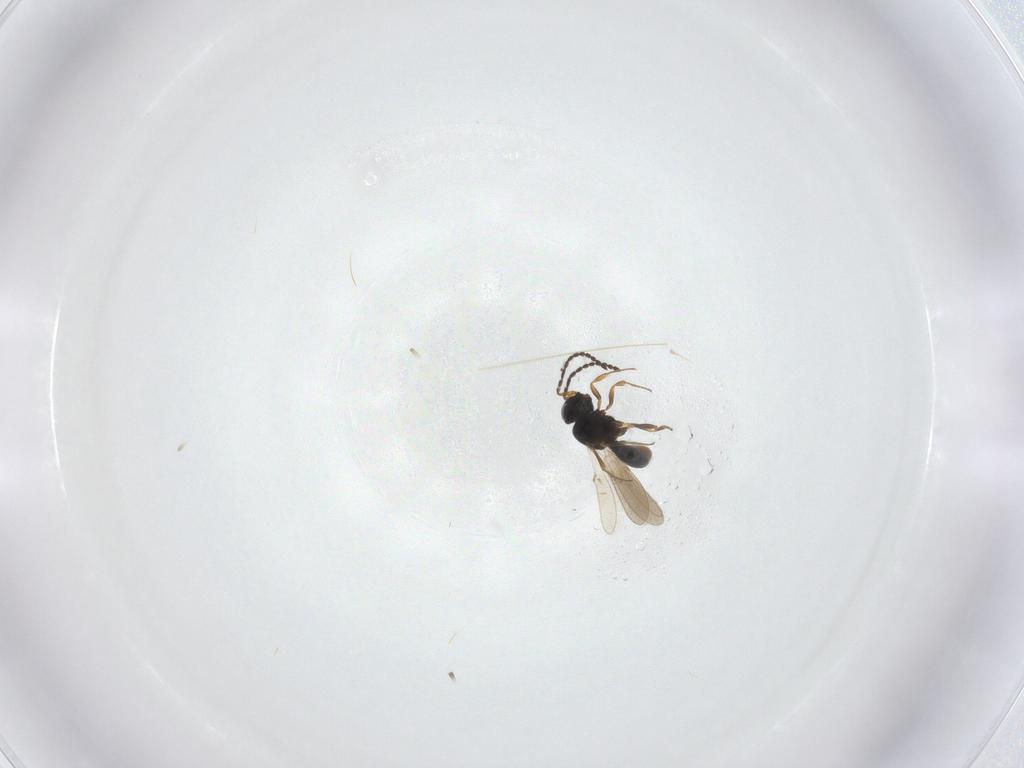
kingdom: Animalia
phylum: Arthropoda
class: Insecta
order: Hymenoptera
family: Scelionidae
